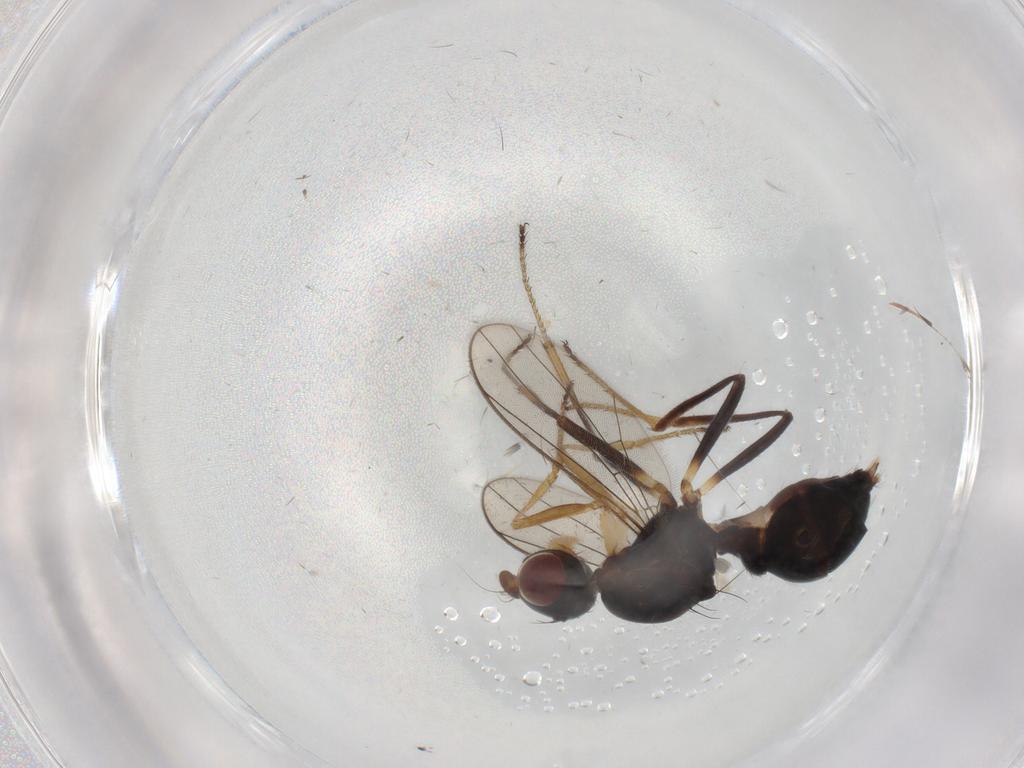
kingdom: Animalia
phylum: Arthropoda
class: Insecta
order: Diptera
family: Sepsidae
